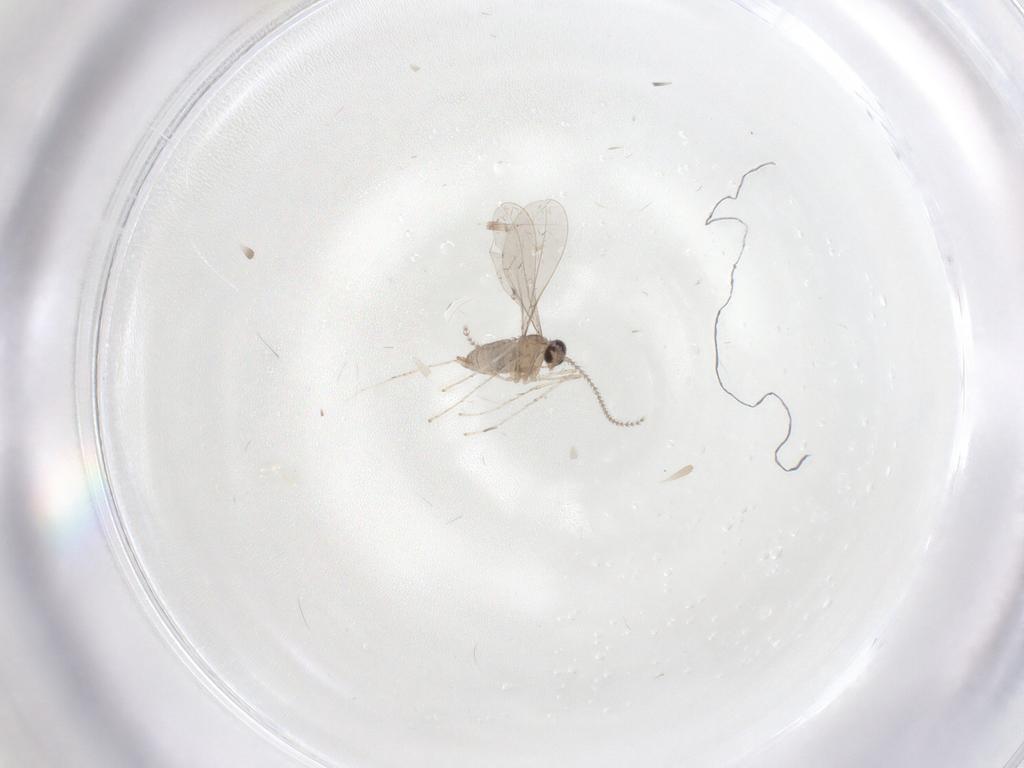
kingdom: Animalia
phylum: Arthropoda
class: Insecta
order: Diptera
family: Cecidomyiidae
